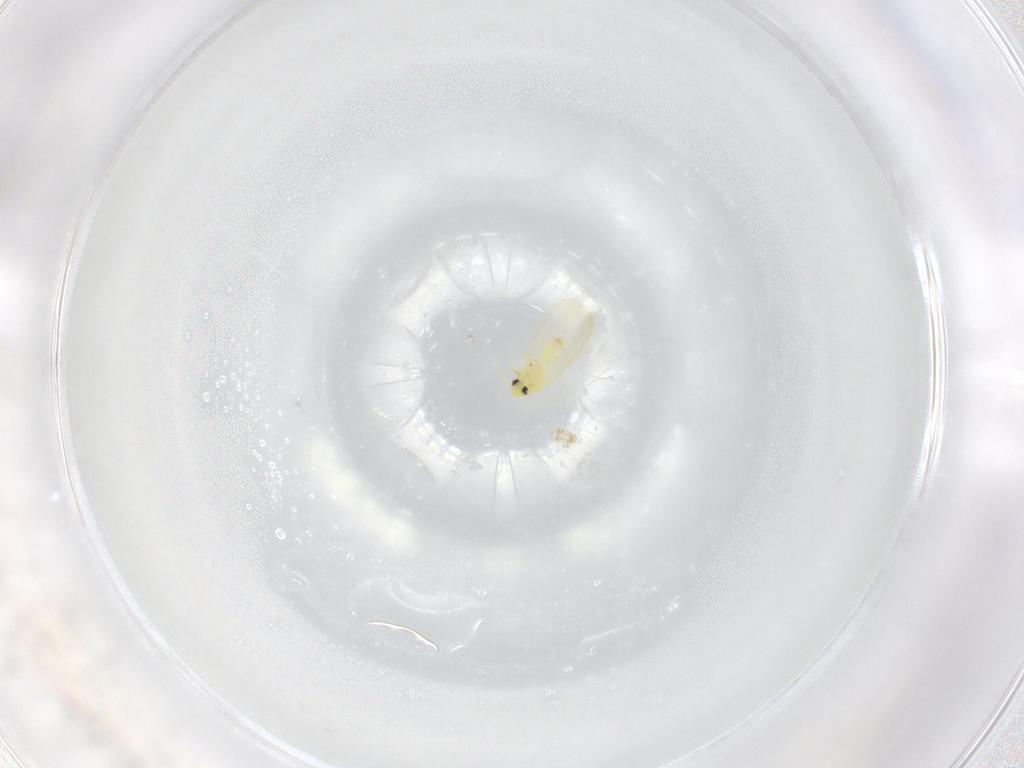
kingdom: Animalia
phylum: Arthropoda
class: Insecta
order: Hemiptera
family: Aleyrodidae
